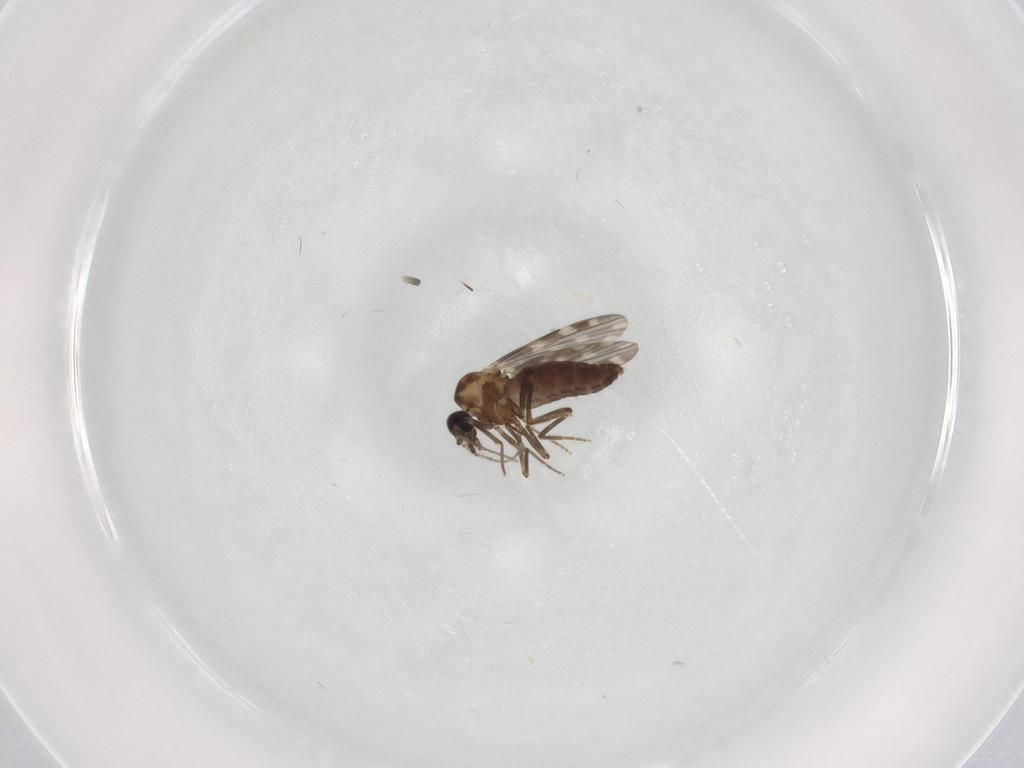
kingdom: Animalia
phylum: Arthropoda
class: Insecta
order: Diptera
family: Ceratopogonidae
